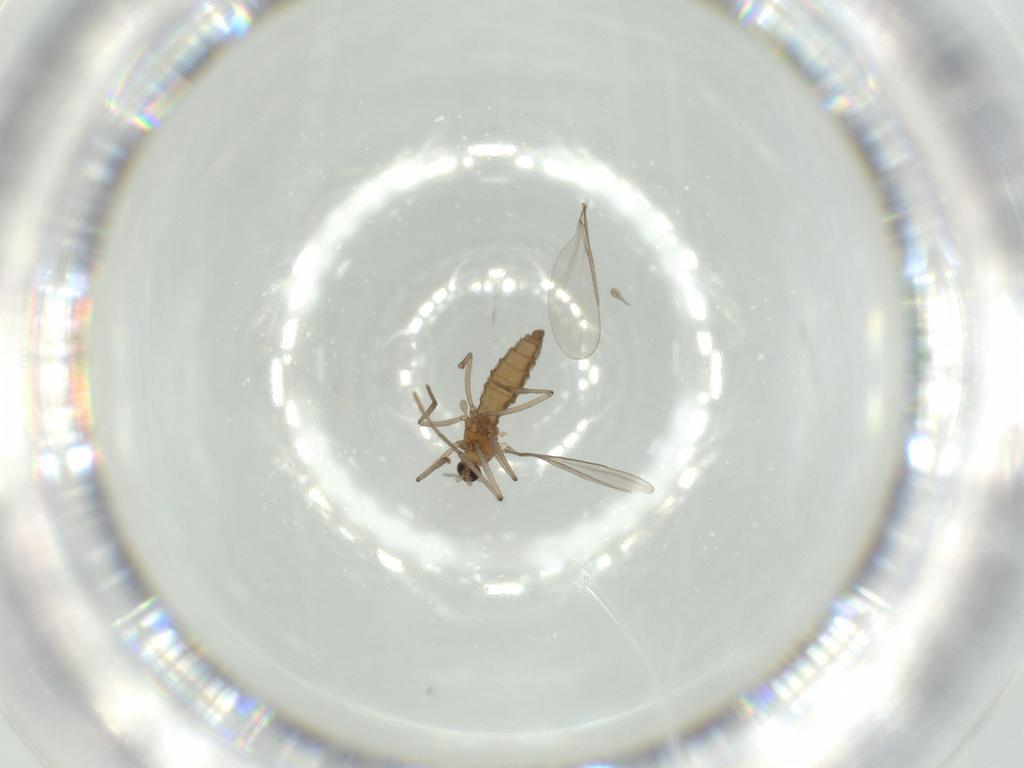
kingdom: Animalia
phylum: Arthropoda
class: Insecta
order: Diptera
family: Cecidomyiidae
